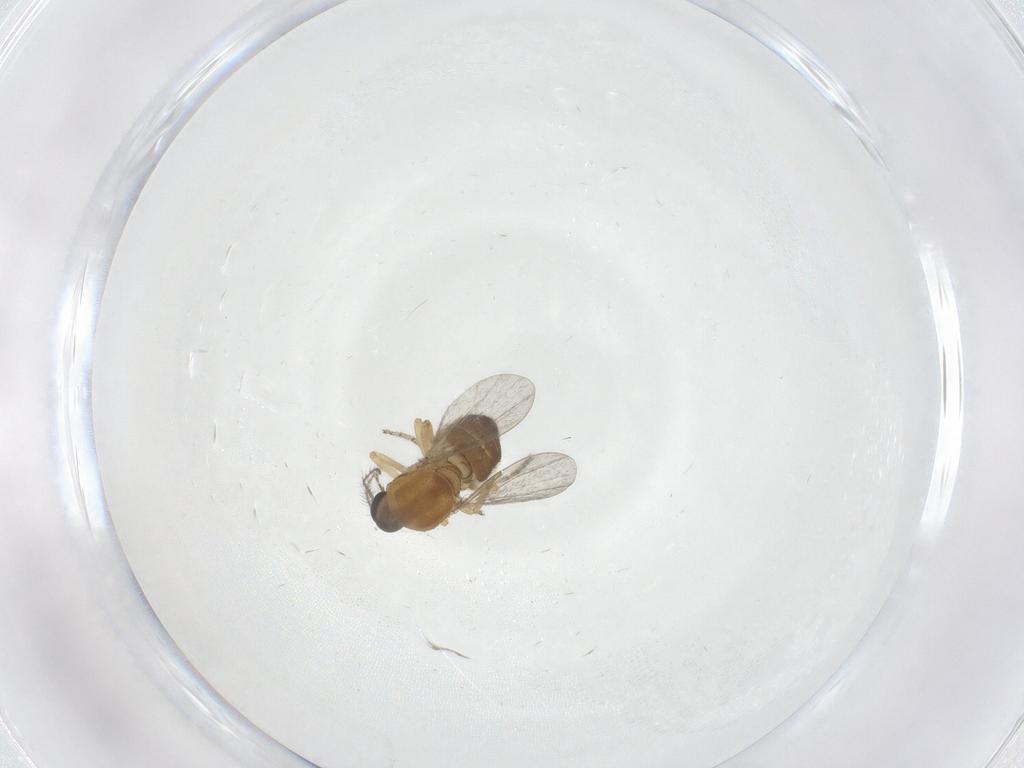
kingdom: Animalia
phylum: Arthropoda
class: Insecta
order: Diptera
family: Ceratopogonidae
